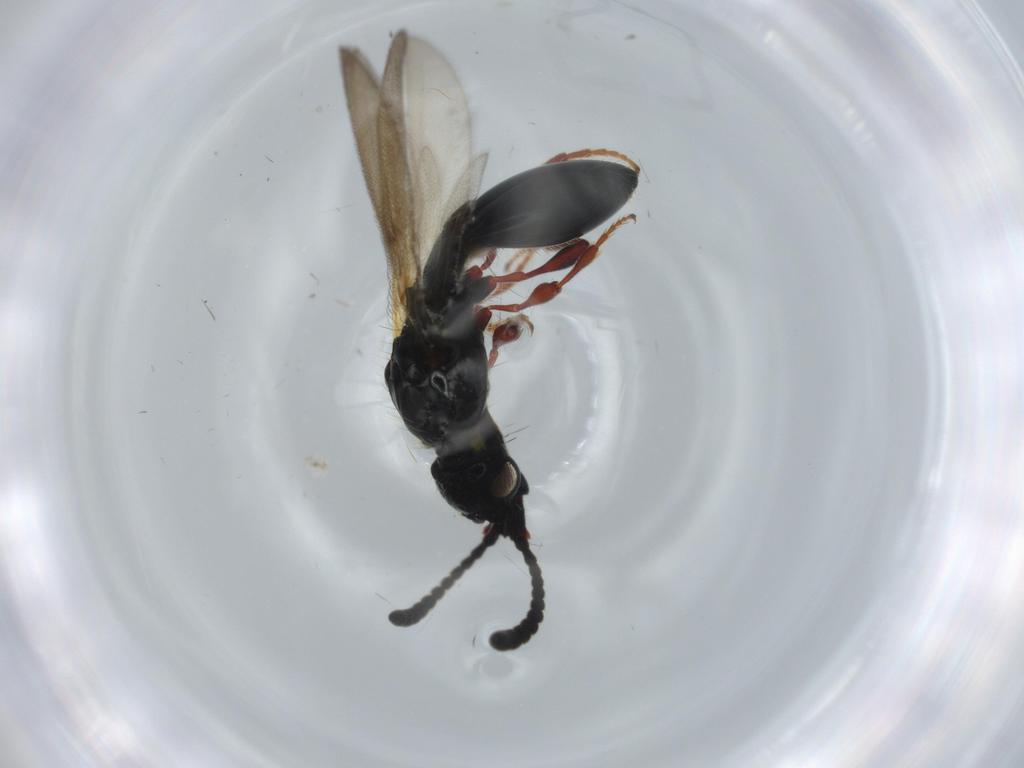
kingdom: Animalia
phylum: Arthropoda
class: Insecta
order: Hymenoptera
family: Diapriidae
